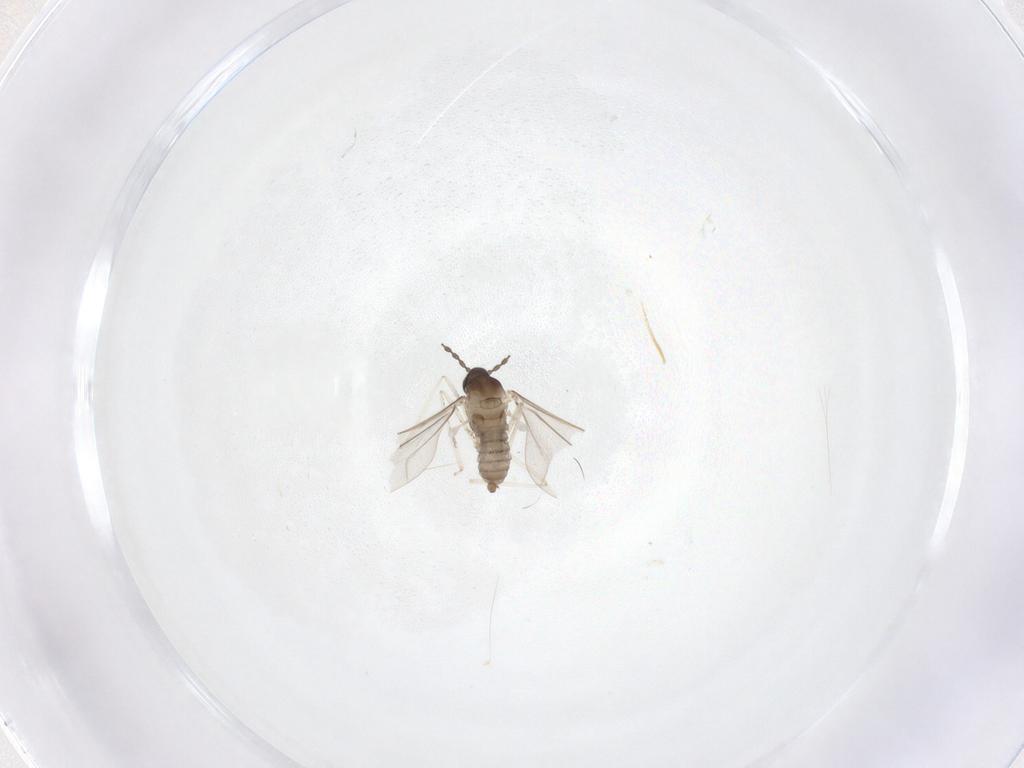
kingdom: Animalia
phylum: Arthropoda
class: Insecta
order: Diptera
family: Cecidomyiidae
